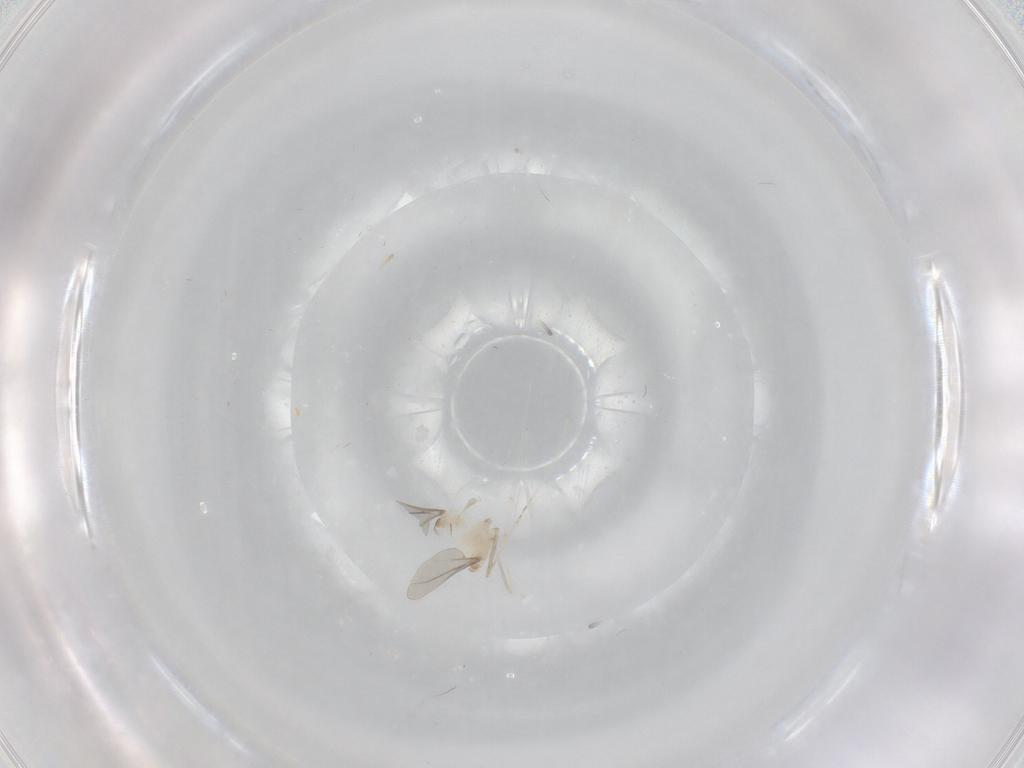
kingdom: Animalia
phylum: Arthropoda
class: Insecta
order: Diptera
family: Cecidomyiidae
